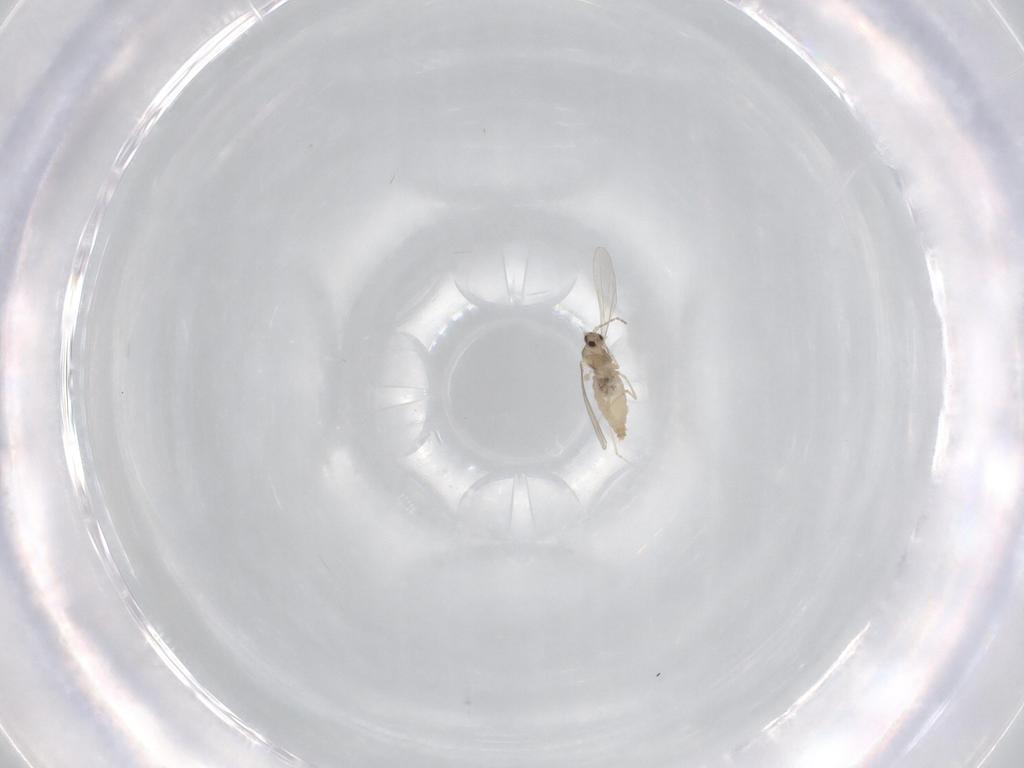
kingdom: Animalia
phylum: Arthropoda
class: Insecta
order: Diptera
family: Cecidomyiidae
